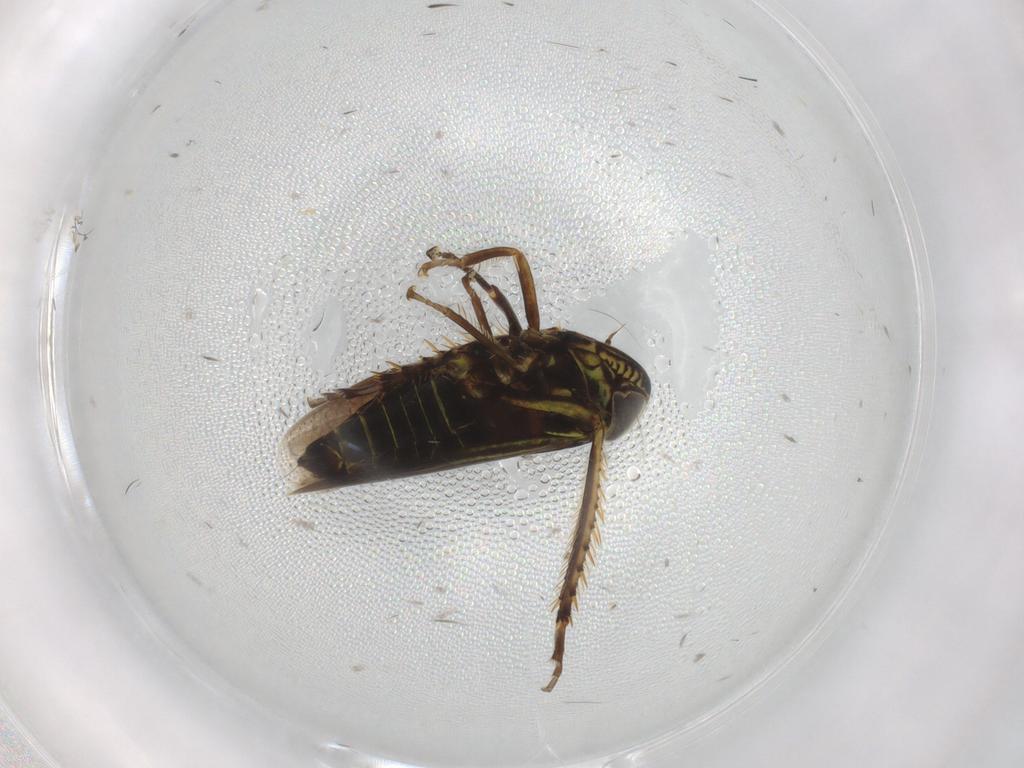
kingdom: Animalia
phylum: Arthropoda
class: Insecta
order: Hemiptera
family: Cicadellidae
